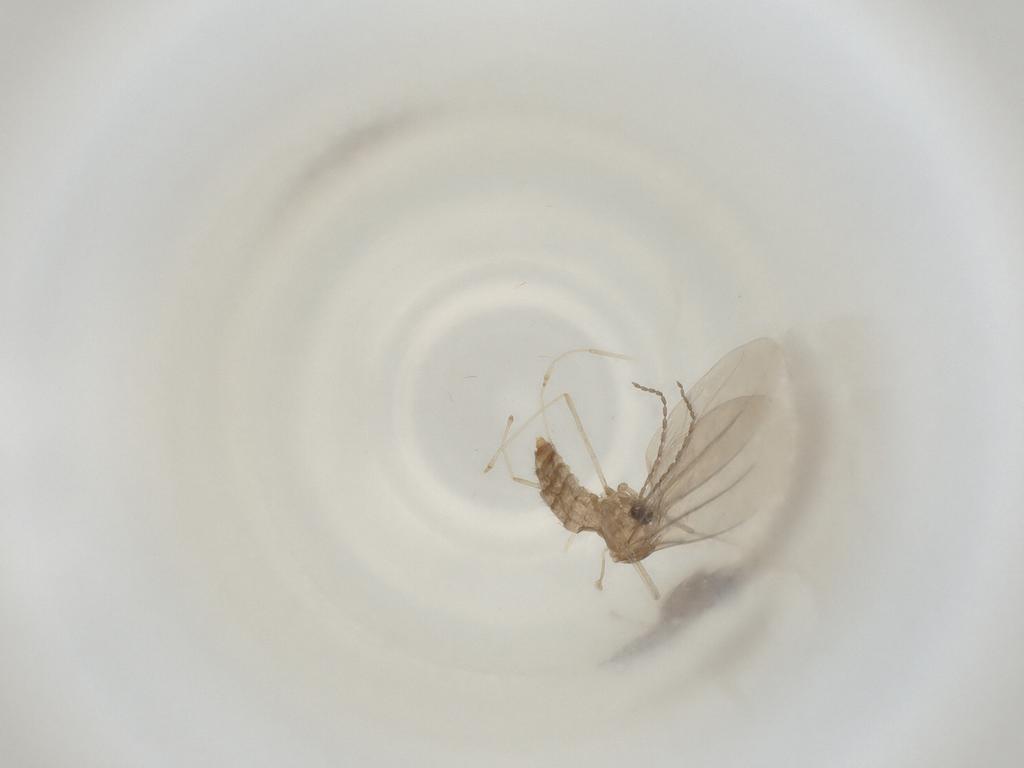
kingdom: Animalia
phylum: Arthropoda
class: Insecta
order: Diptera
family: Cecidomyiidae
